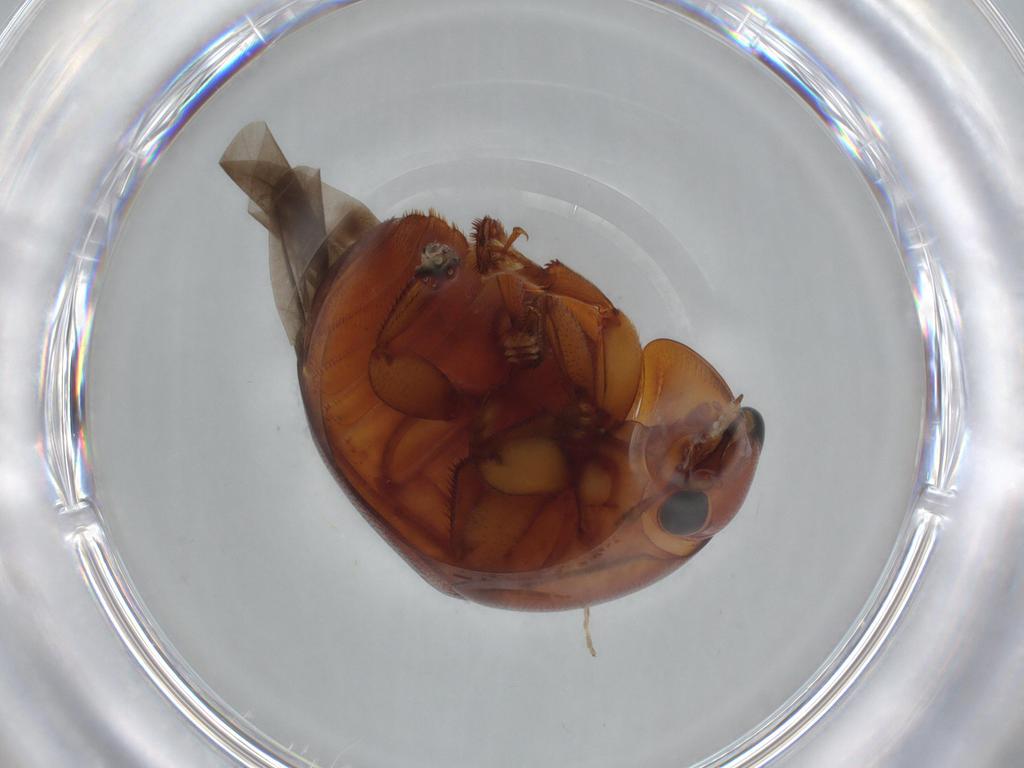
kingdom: Animalia
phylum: Arthropoda
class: Insecta
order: Coleoptera
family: Nitidulidae
